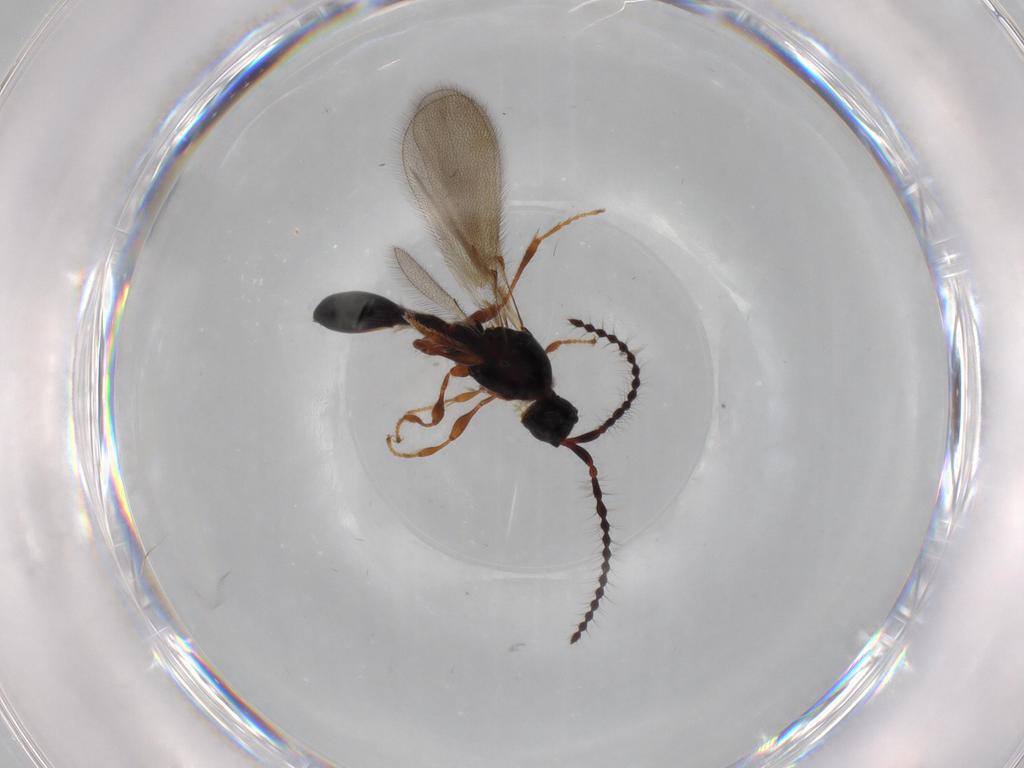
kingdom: Animalia
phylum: Arthropoda
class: Insecta
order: Hymenoptera
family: Diapriidae
